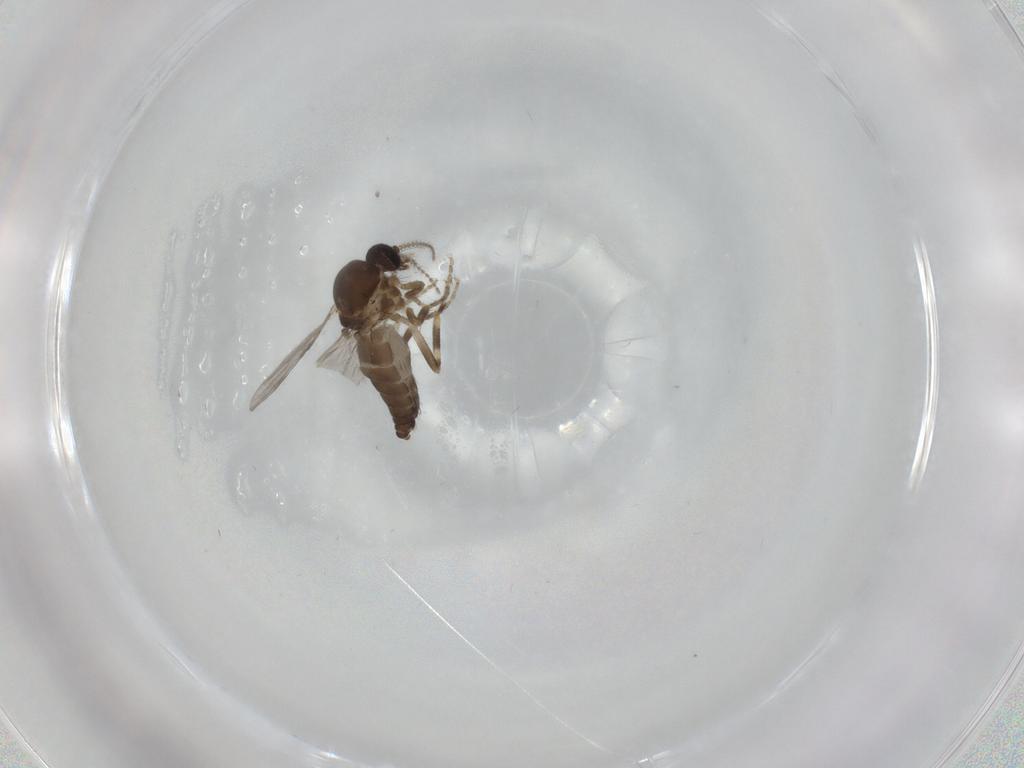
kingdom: Animalia
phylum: Arthropoda
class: Insecta
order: Diptera
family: Ceratopogonidae
